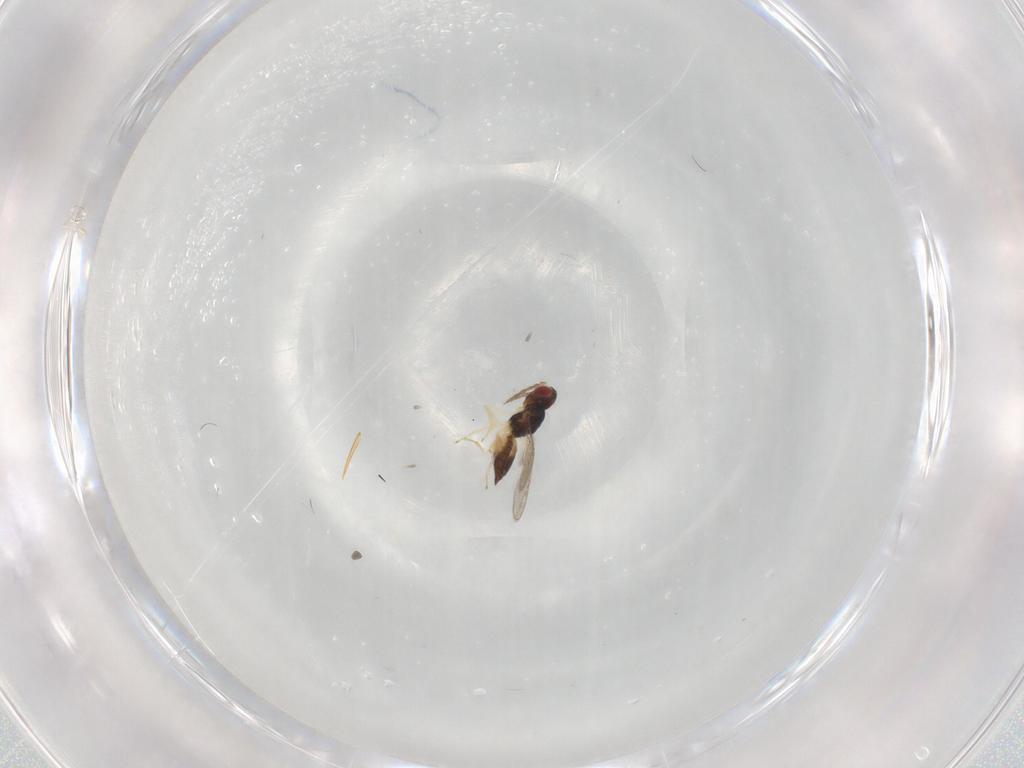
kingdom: Animalia
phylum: Arthropoda
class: Insecta
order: Hymenoptera
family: Eulophidae
